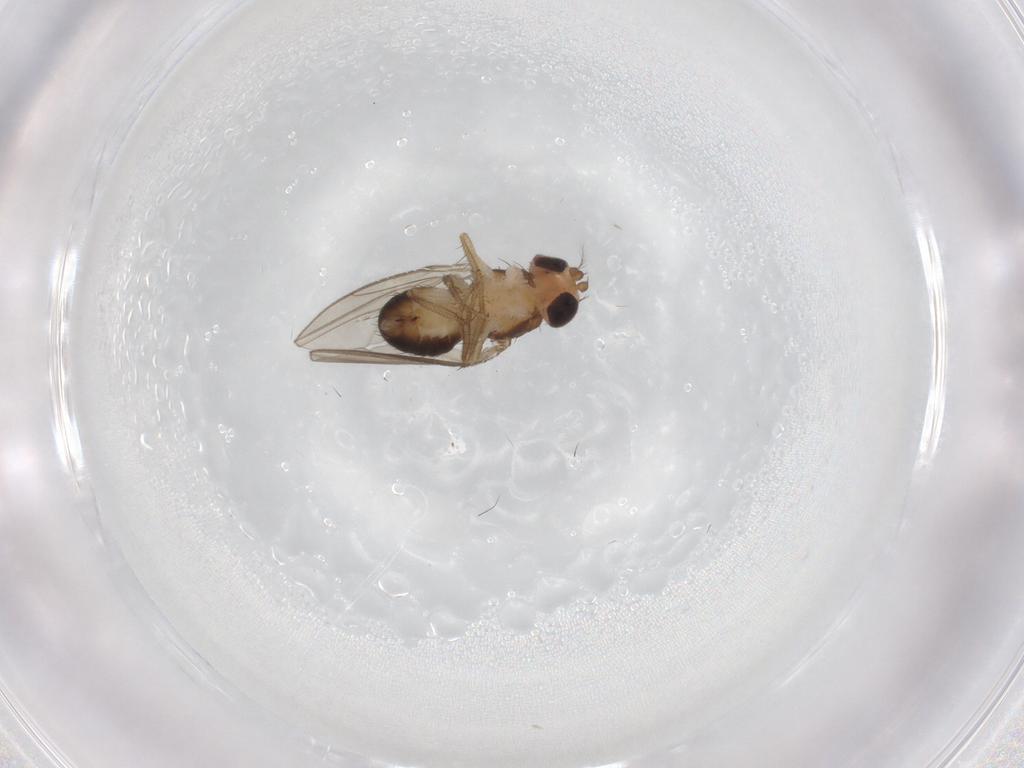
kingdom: Animalia
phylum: Arthropoda
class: Insecta
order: Diptera
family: Drosophilidae
